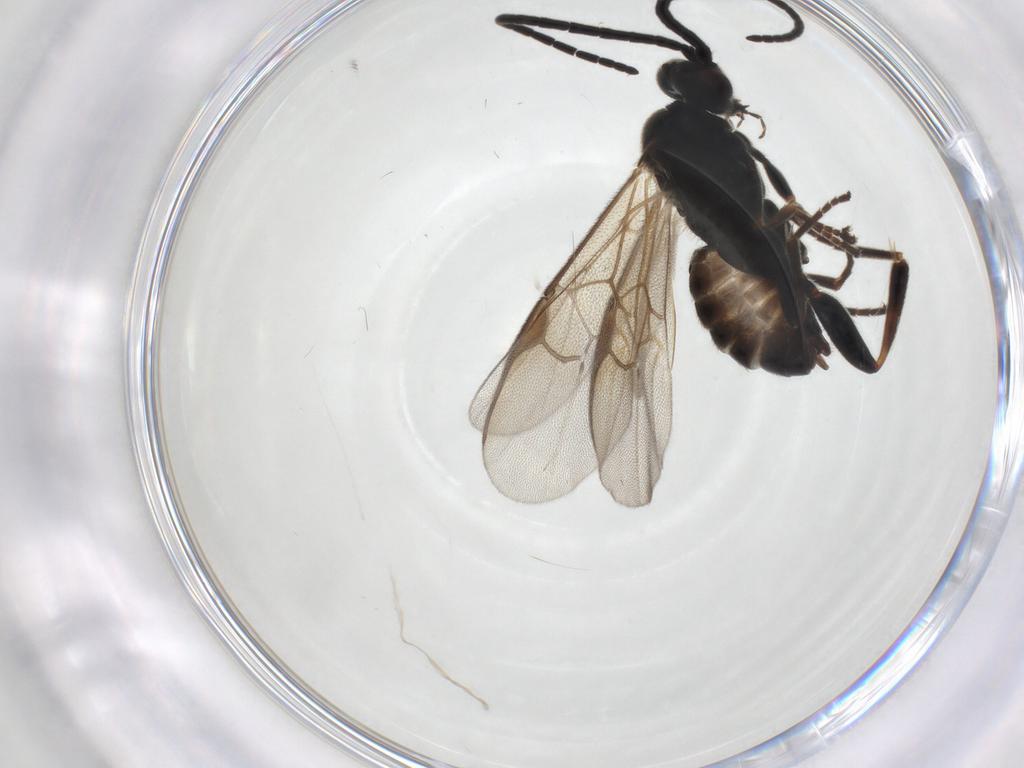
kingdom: Animalia
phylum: Arthropoda
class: Insecta
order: Hymenoptera
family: Braconidae
